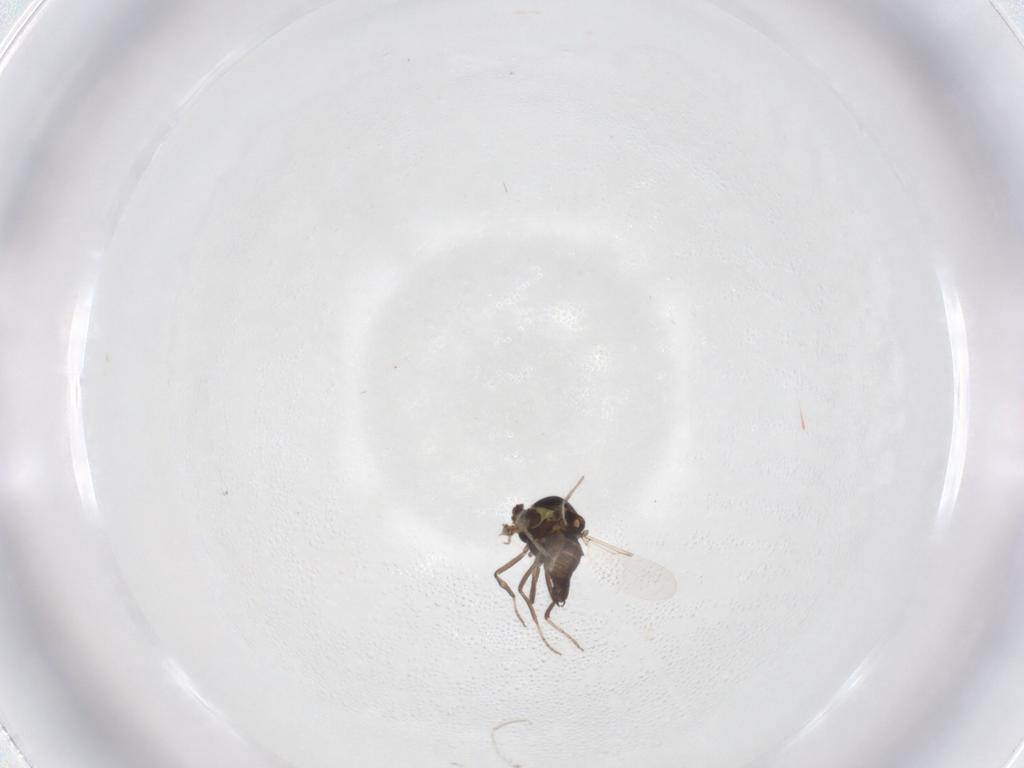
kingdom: Animalia
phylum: Arthropoda
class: Insecta
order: Diptera
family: Ceratopogonidae
